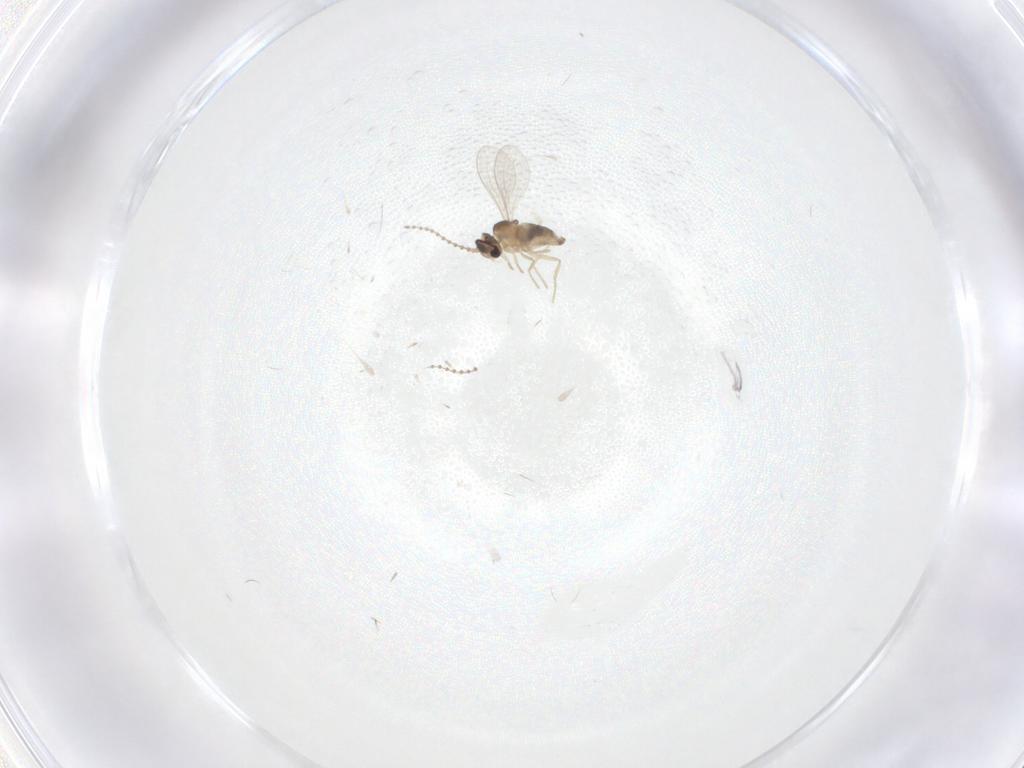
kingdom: Animalia
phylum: Arthropoda
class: Insecta
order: Diptera
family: Cecidomyiidae
